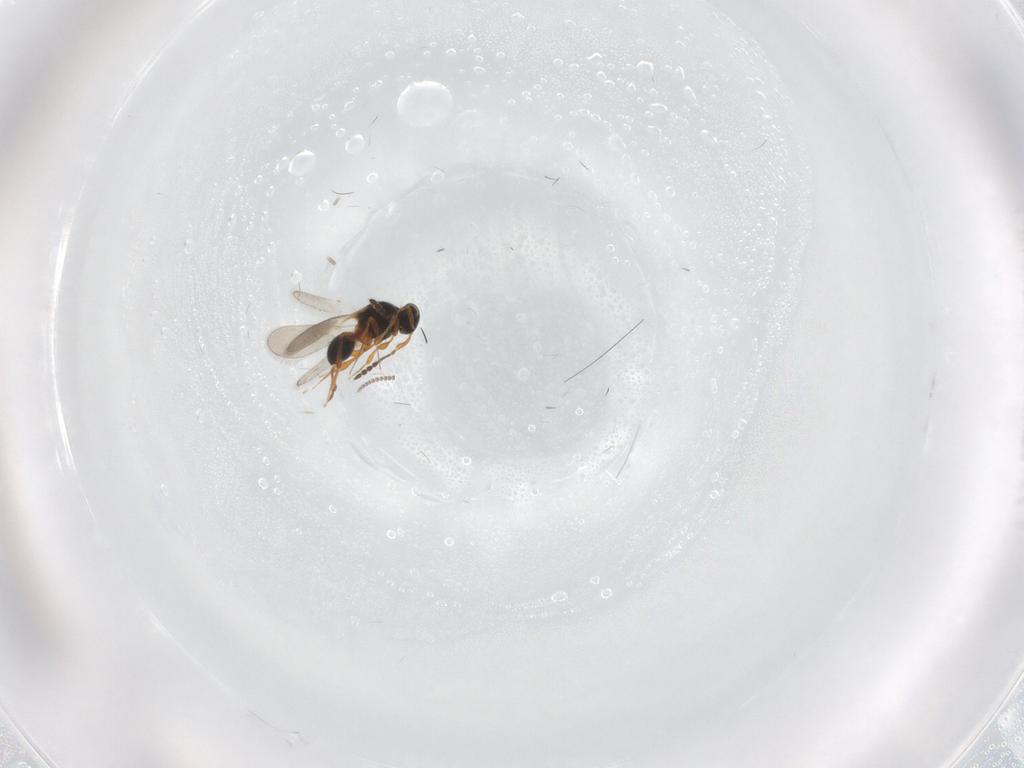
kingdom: Animalia
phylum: Arthropoda
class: Insecta
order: Hymenoptera
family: Platygastridae
